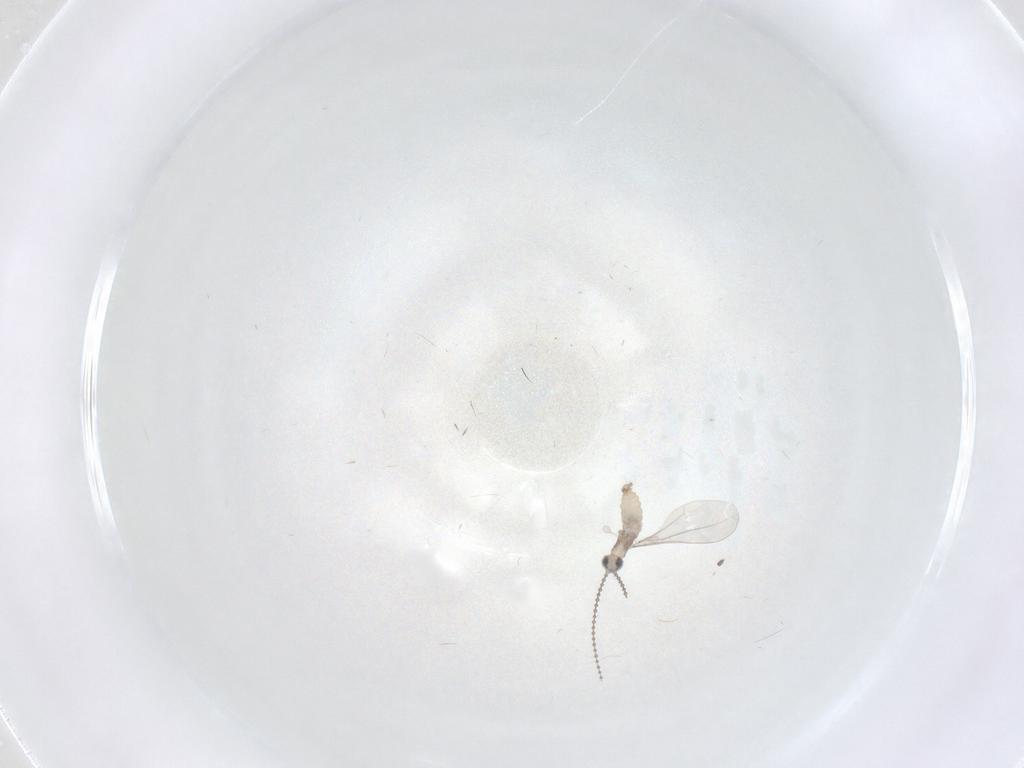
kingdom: Animalia
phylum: Arthropoda
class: Insecta
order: Diptera
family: Cecidomyiidae
